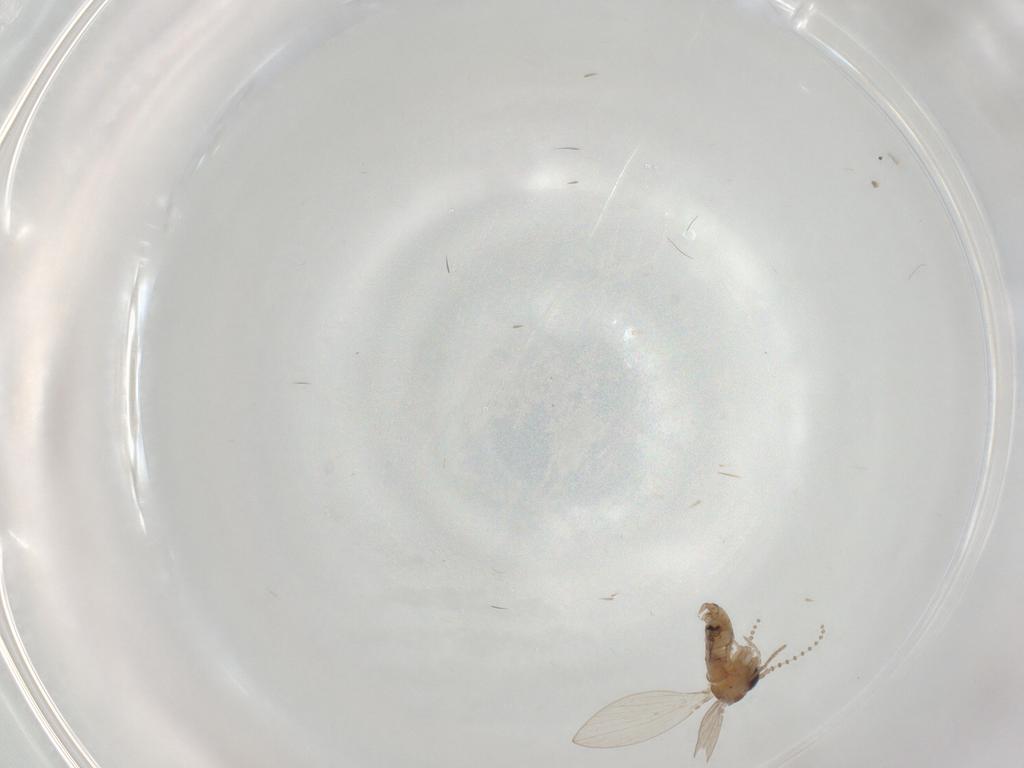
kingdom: Animalia
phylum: Arthropoda
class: Insecta
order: Diptera
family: Psychodidae
